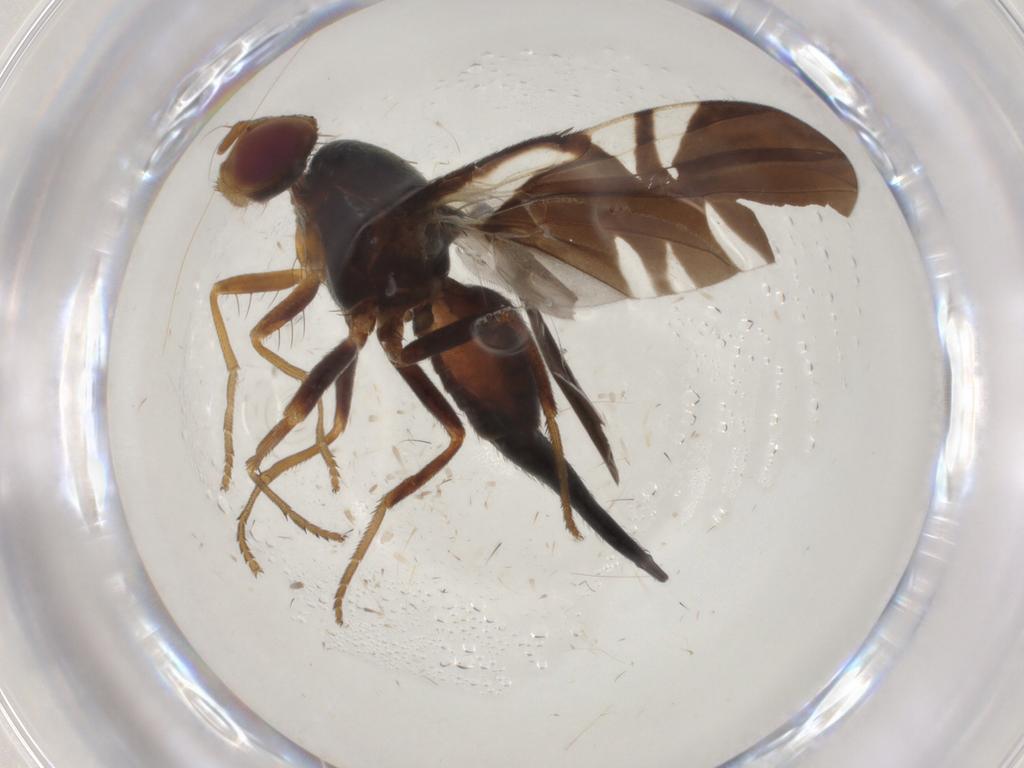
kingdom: Animalia
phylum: Arthropoda
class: Insecta
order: Diptera
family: Tephritidae
